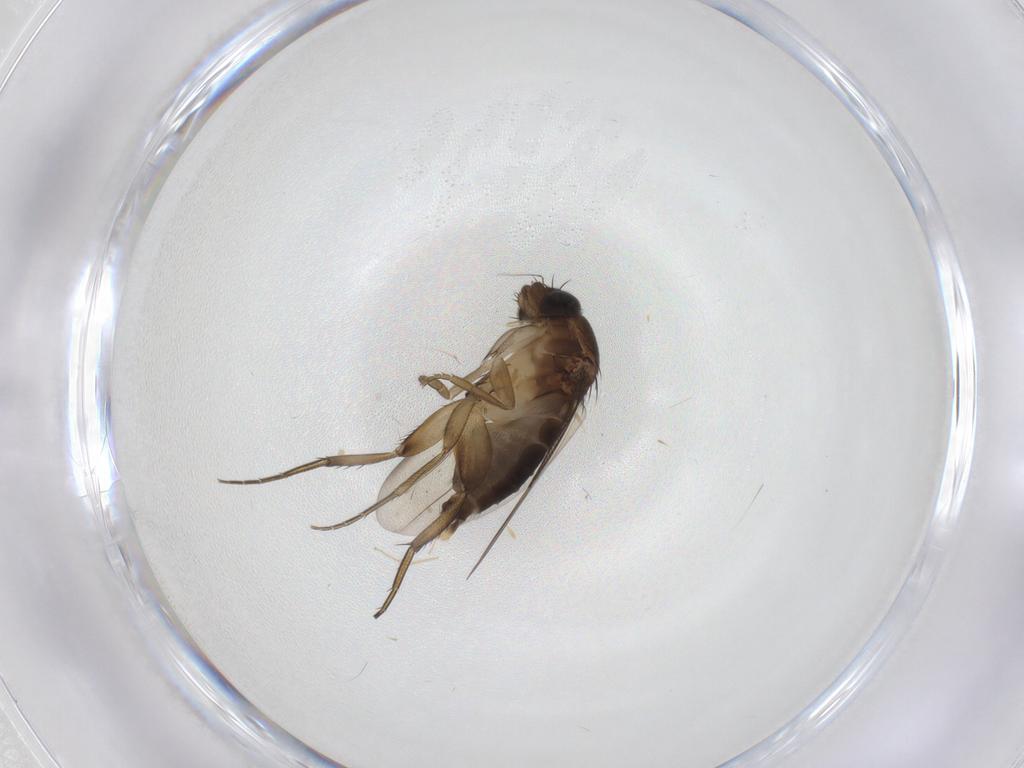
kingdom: Animalia
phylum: Arthropoda
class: Insecta
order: Diptera
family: Phoridae
